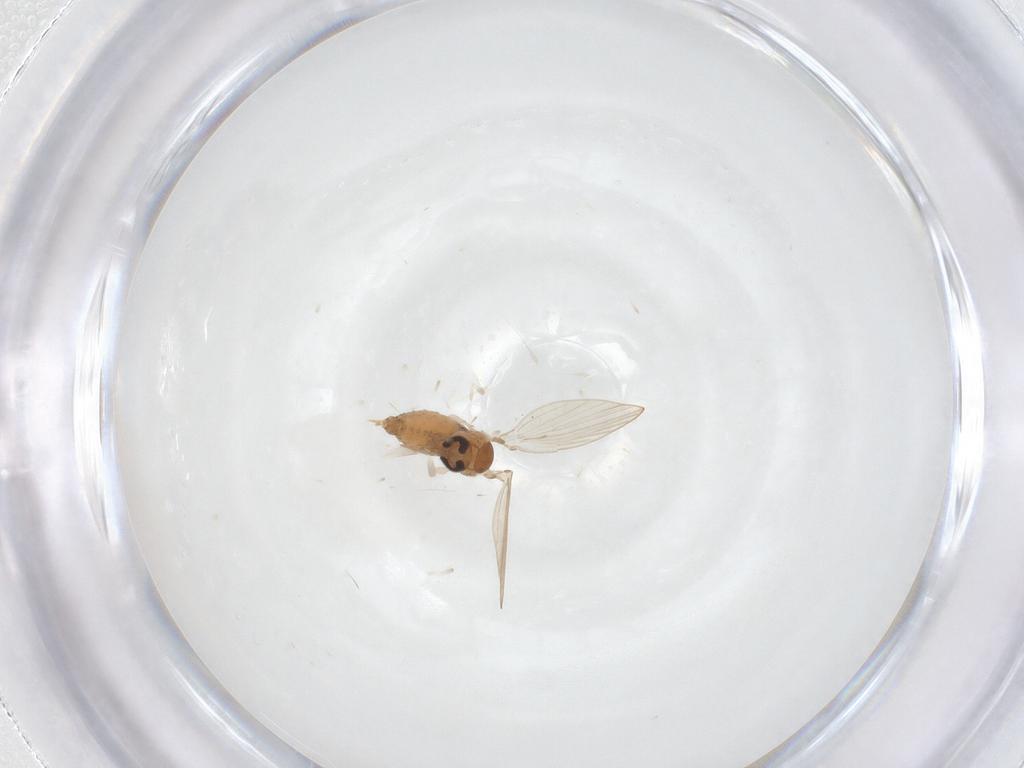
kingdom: Animalia
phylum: Arthropoda
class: Insecta
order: Diptera
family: Psychodidae
